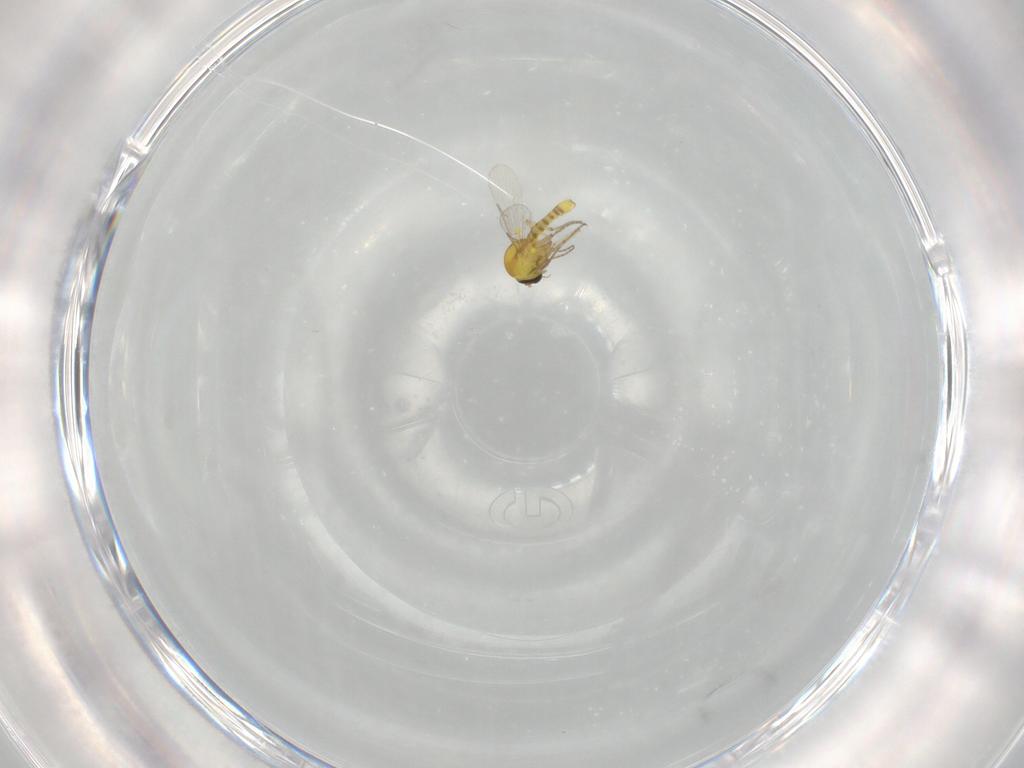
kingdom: Animalia
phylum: Arthropoda
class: Insecta
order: Diptera
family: Ceratopogonidae
